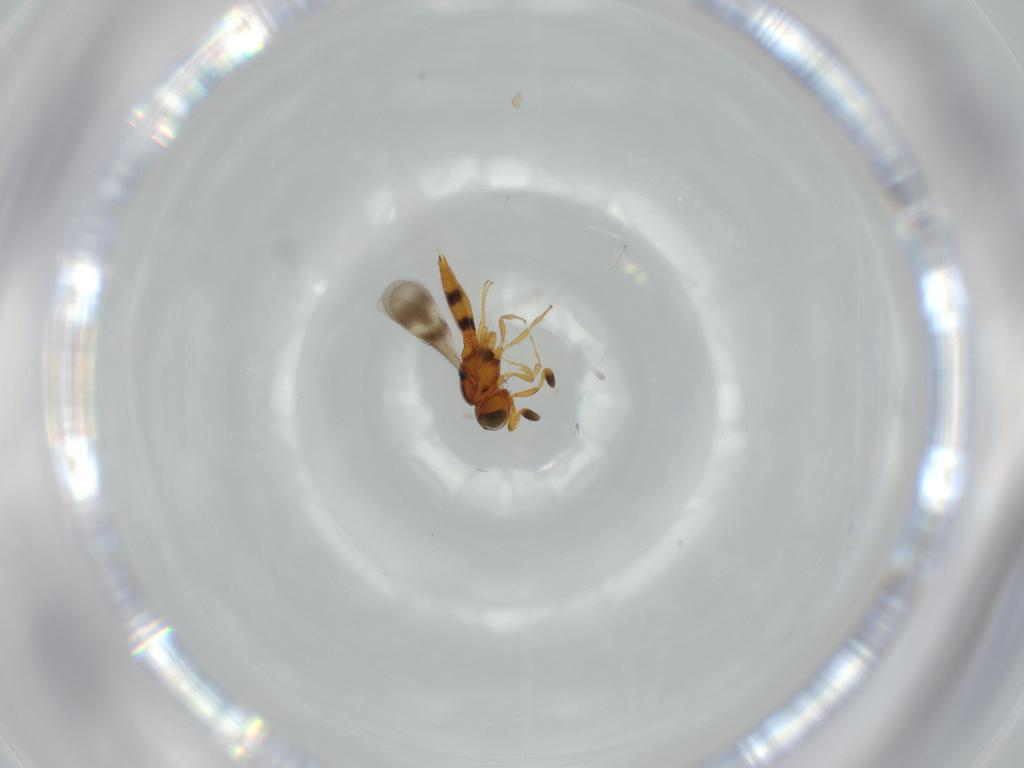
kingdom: Animalia
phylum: Arthropoda
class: Insecta
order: Hymenoptera
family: Scelionidae
